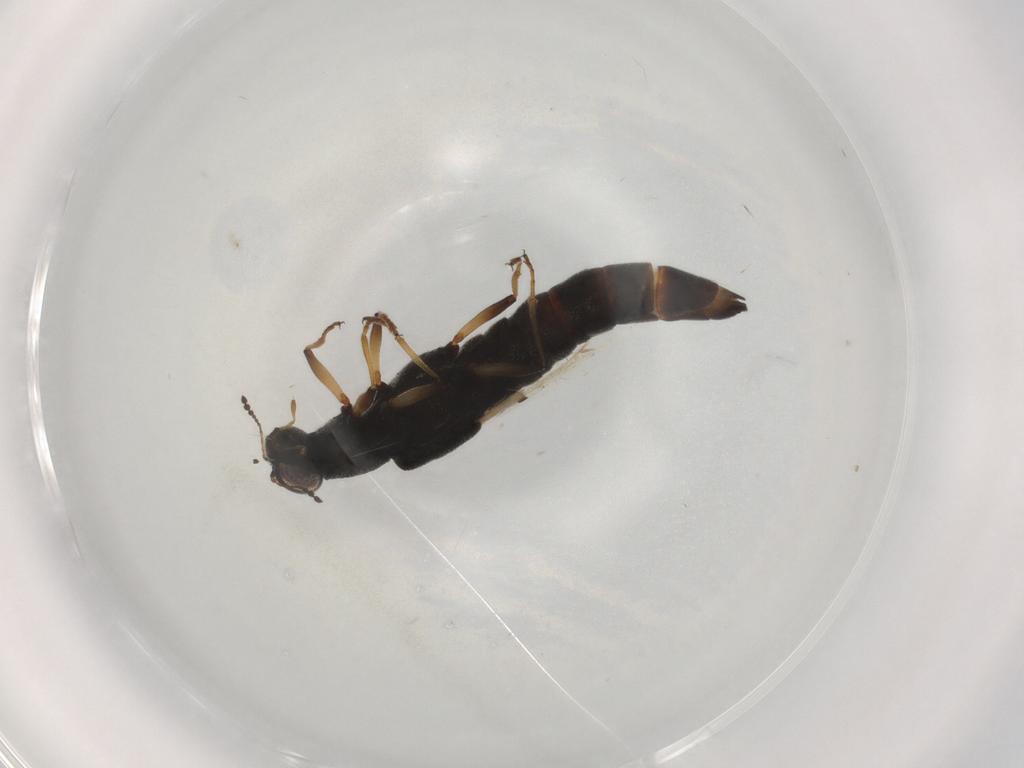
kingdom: Animalia
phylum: Arthropoda
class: Insecta
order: Coleoptera
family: Staphylinidae
